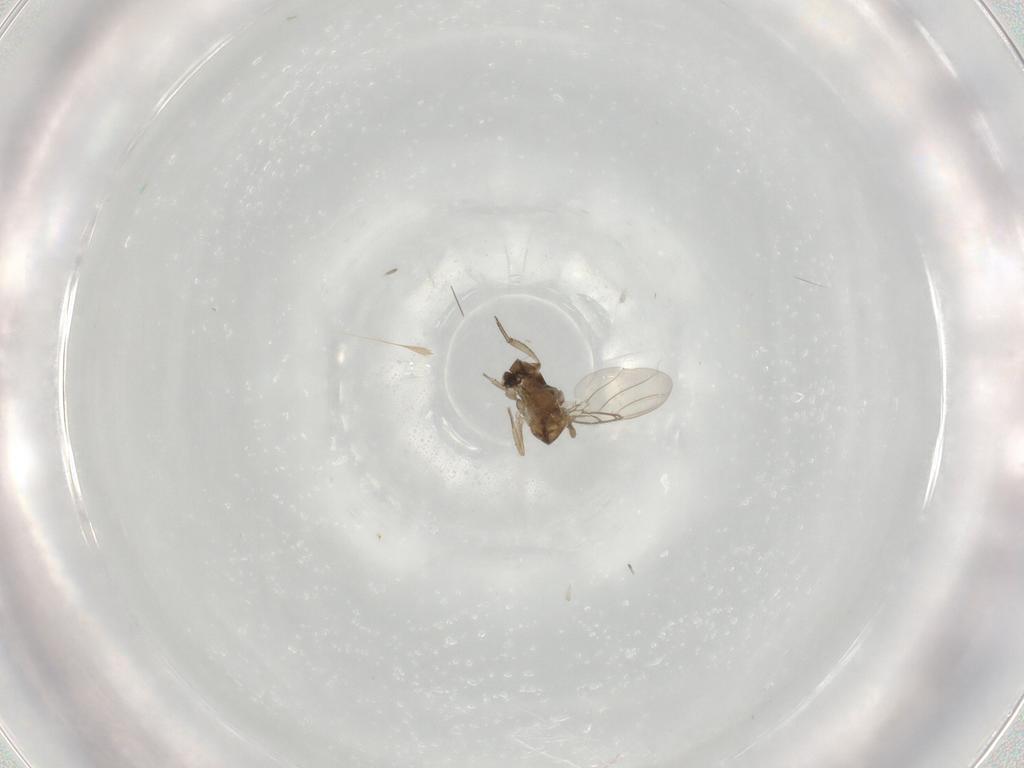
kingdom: Animalia
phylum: Arthropoda
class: Insecta
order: Diptera
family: Phoridae
